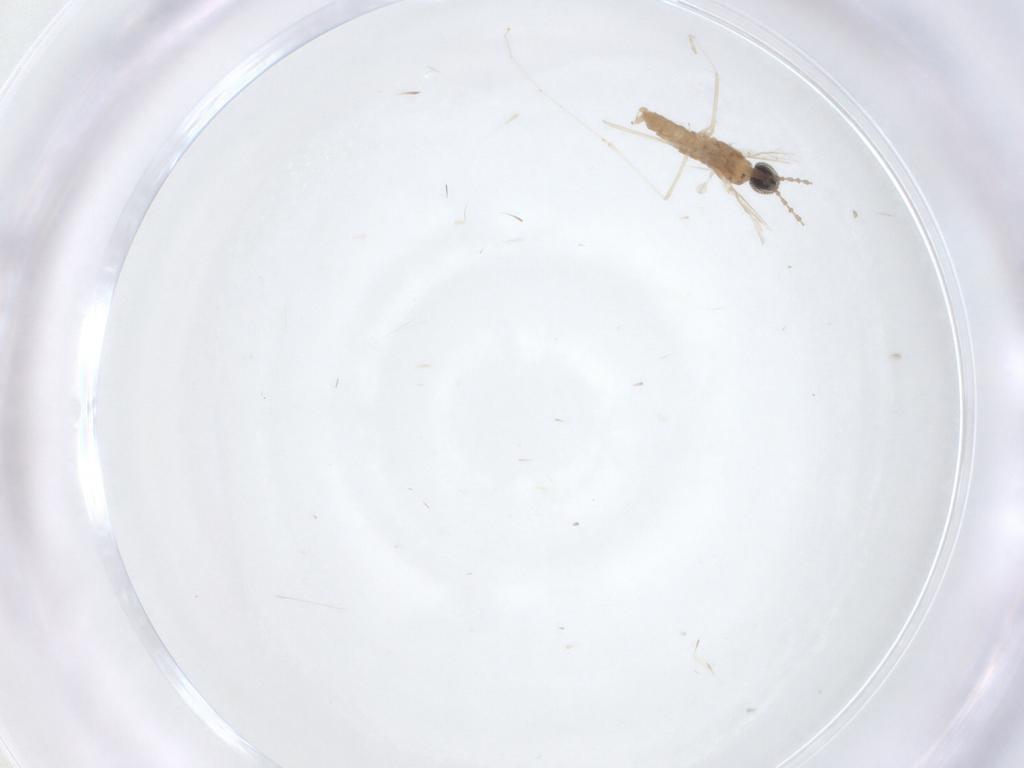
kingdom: Animalia
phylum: Arthropoda
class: Insecta
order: Diptera
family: Cecidomyiidae
